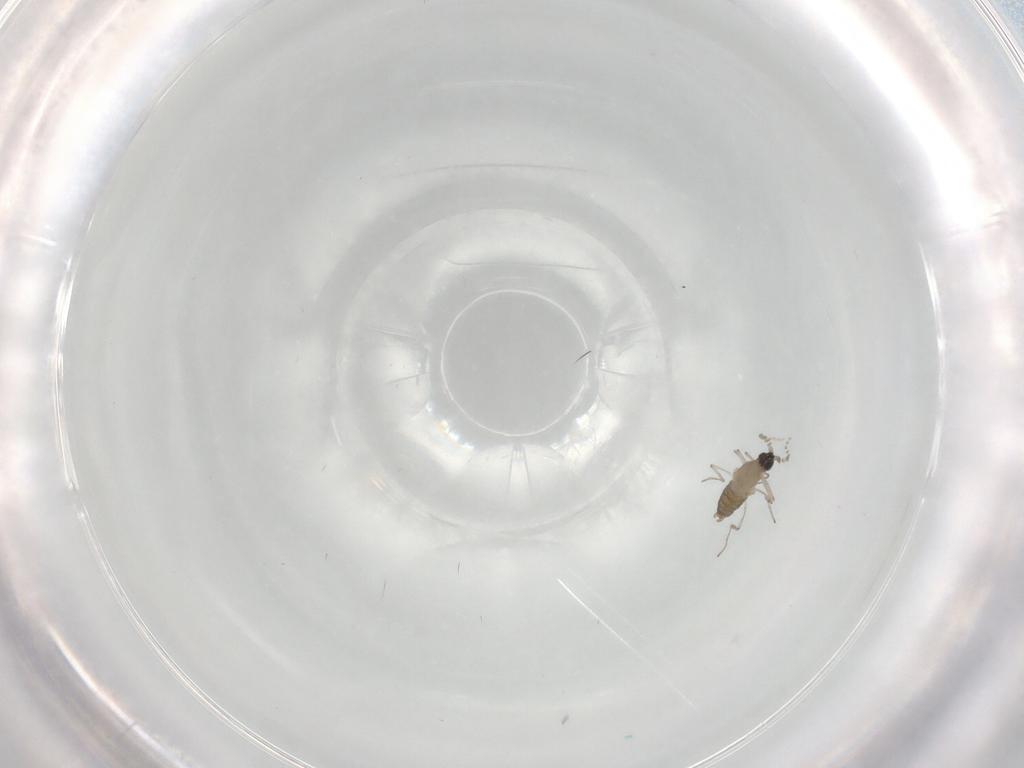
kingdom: Animalia
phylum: Arthropoda
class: Insecta
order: Diptera
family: Cecidomyiidae
